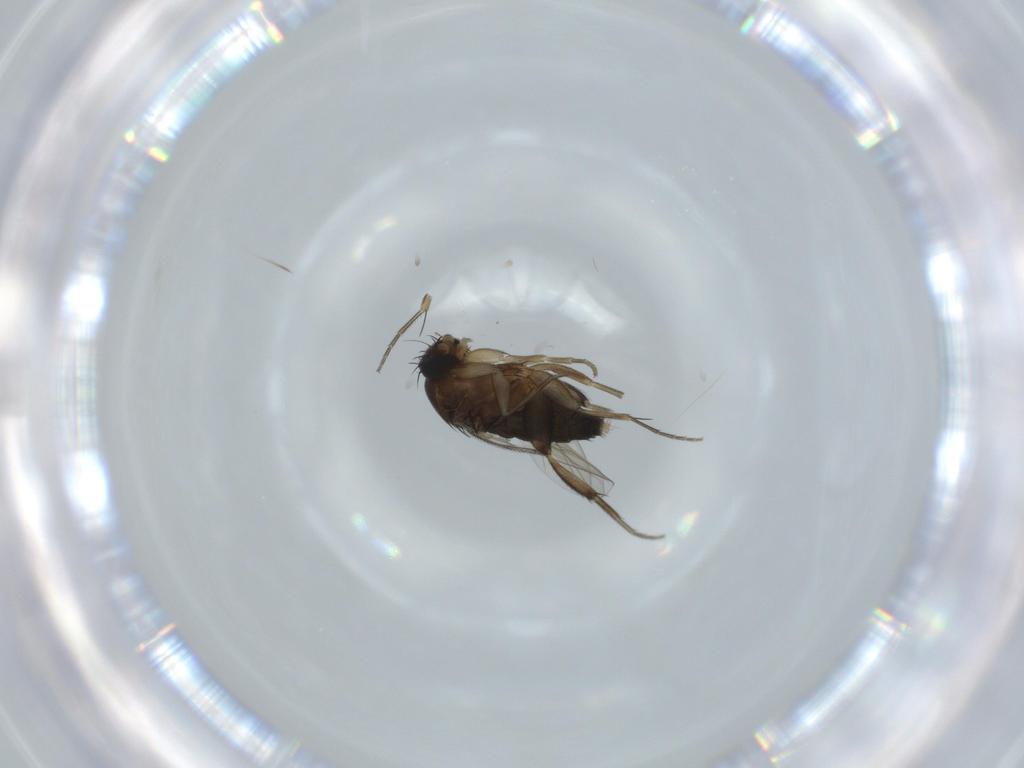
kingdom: Animalia
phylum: Arthropoda
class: Insecta
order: Diptera
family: Phoridae
